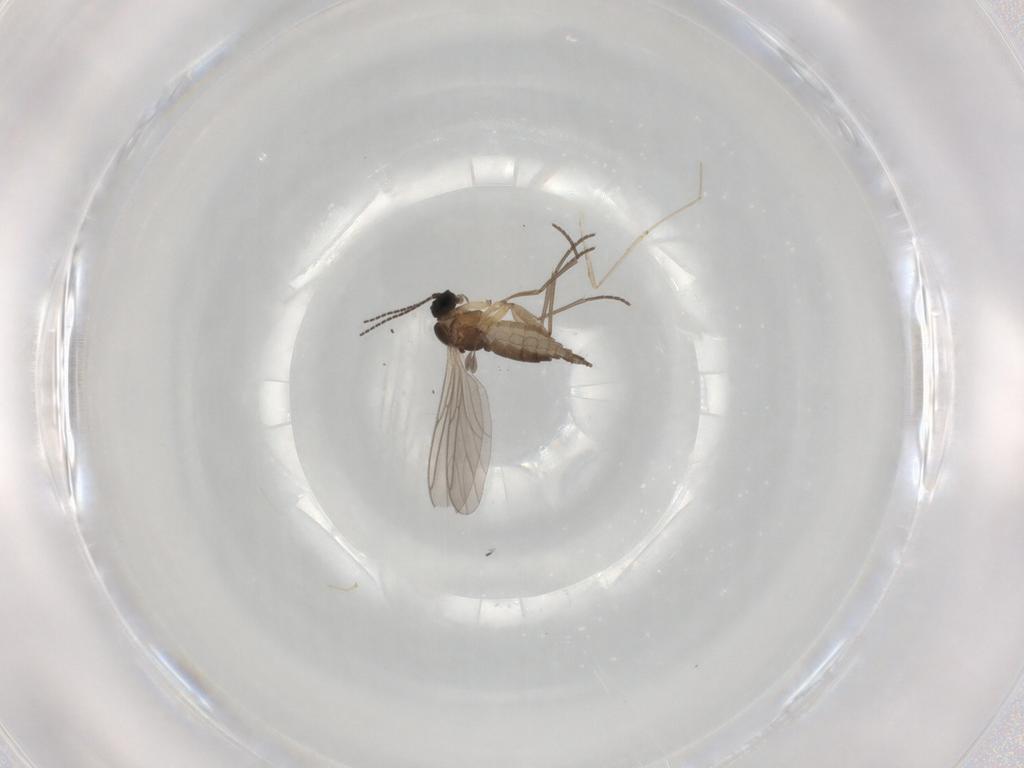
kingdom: Animalia
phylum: Arthropoda
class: Insecta
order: Diptera
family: Sciaridae
